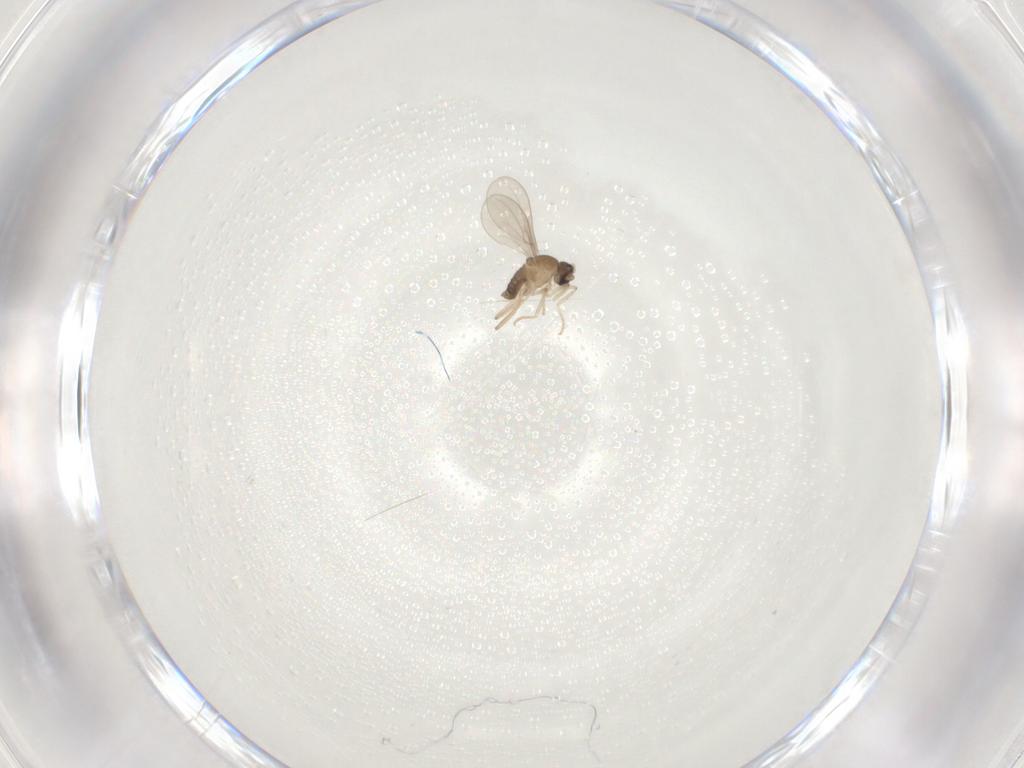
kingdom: Animalia
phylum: Arthropoda
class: Insecta
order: Diptera
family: Cecidomyiidae
